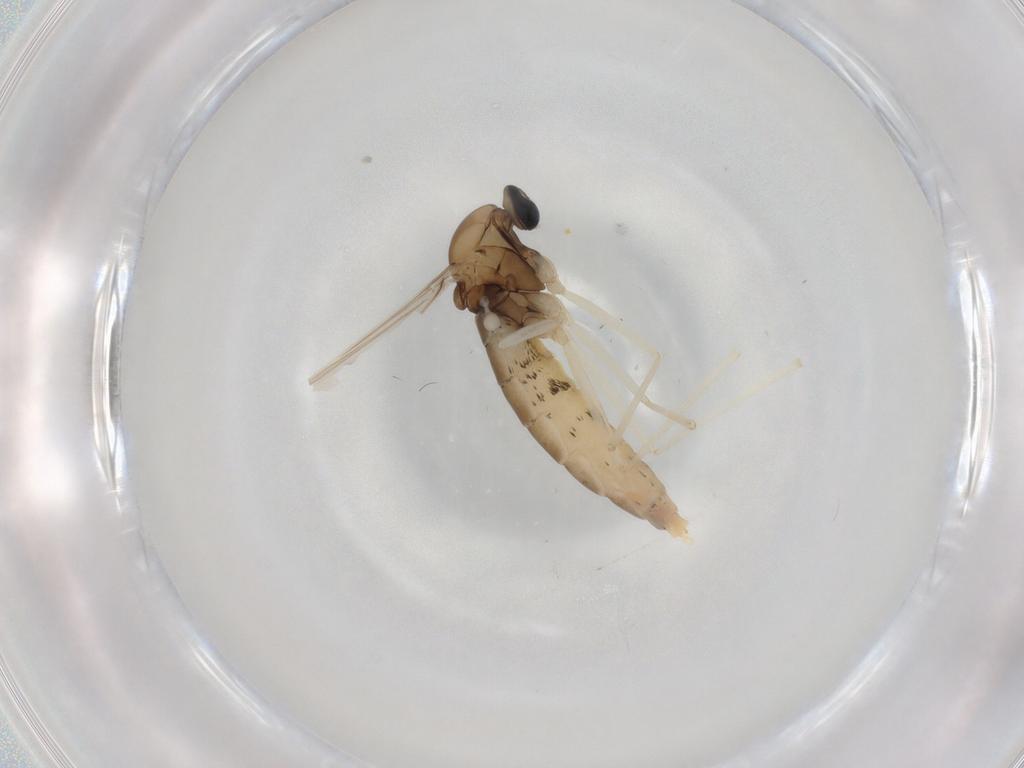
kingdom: Animalia
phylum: Arthropoda
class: Insecta
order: Diptera
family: Cecidomyiidae
